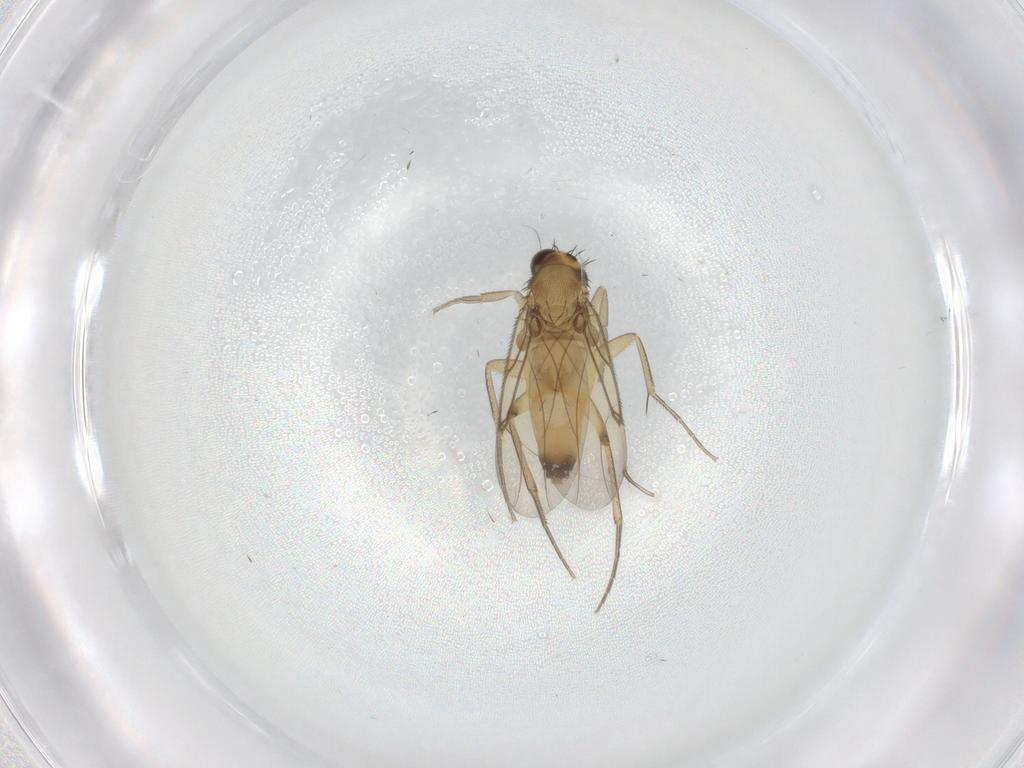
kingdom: Animalia
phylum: Arthropoda
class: Insecta
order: Diptera
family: Phoridae
